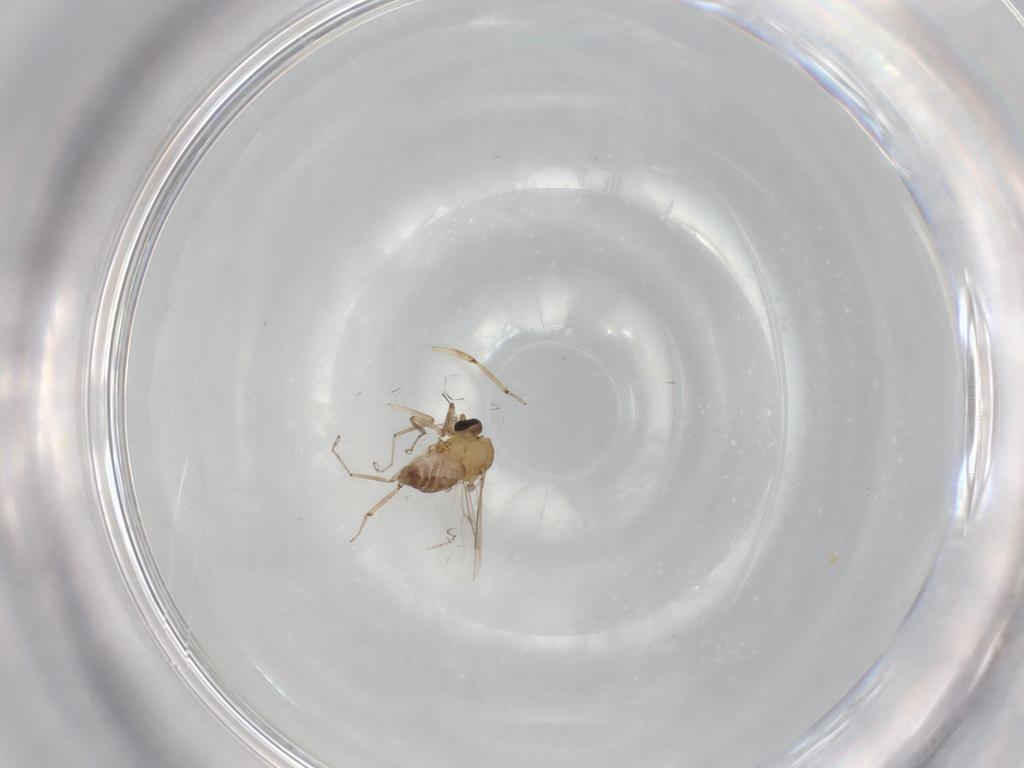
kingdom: Animalia
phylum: Arthropoda
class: Insecta
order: Diptera
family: Ceratopogonidae
